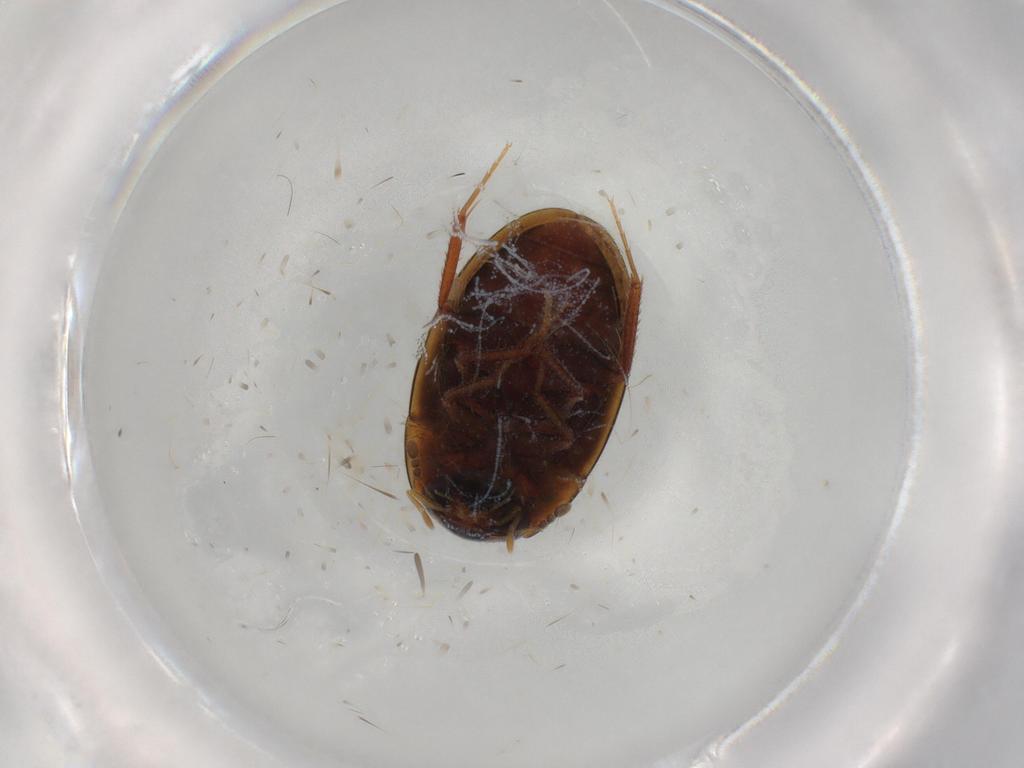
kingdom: Animalia
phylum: Arthropoda
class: Insecta
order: Coleoptera
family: Hydrophilidae
